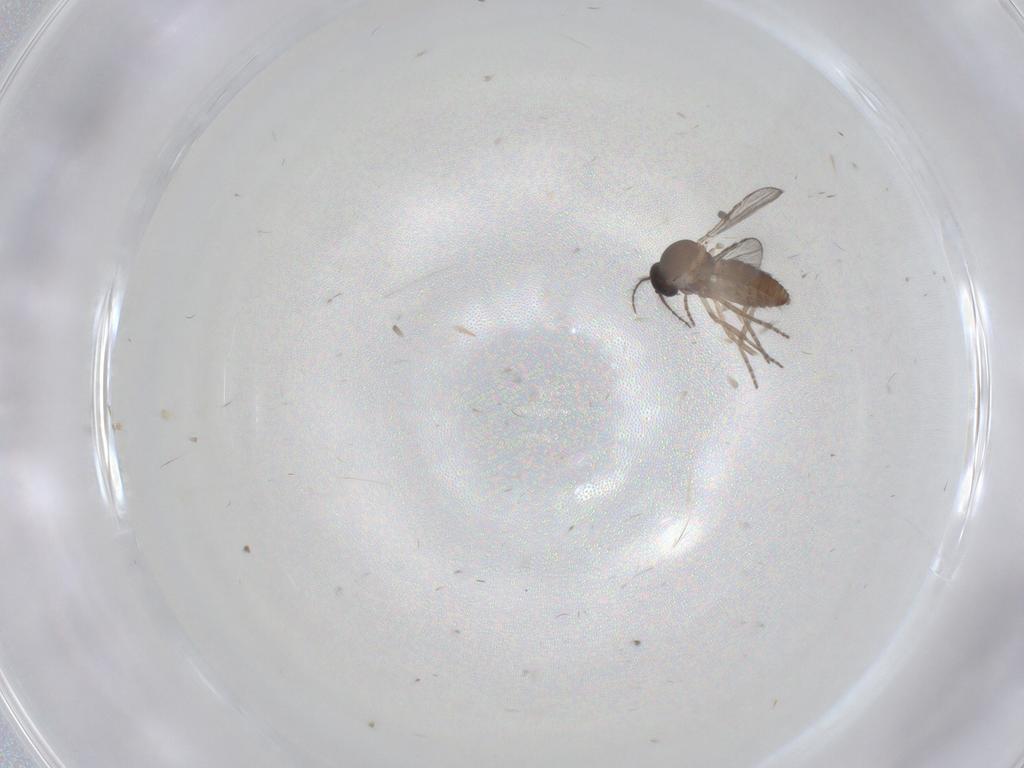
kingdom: Animalia
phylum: Arthropoda
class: Insecta
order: Diptera
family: Ceratopogonidae
